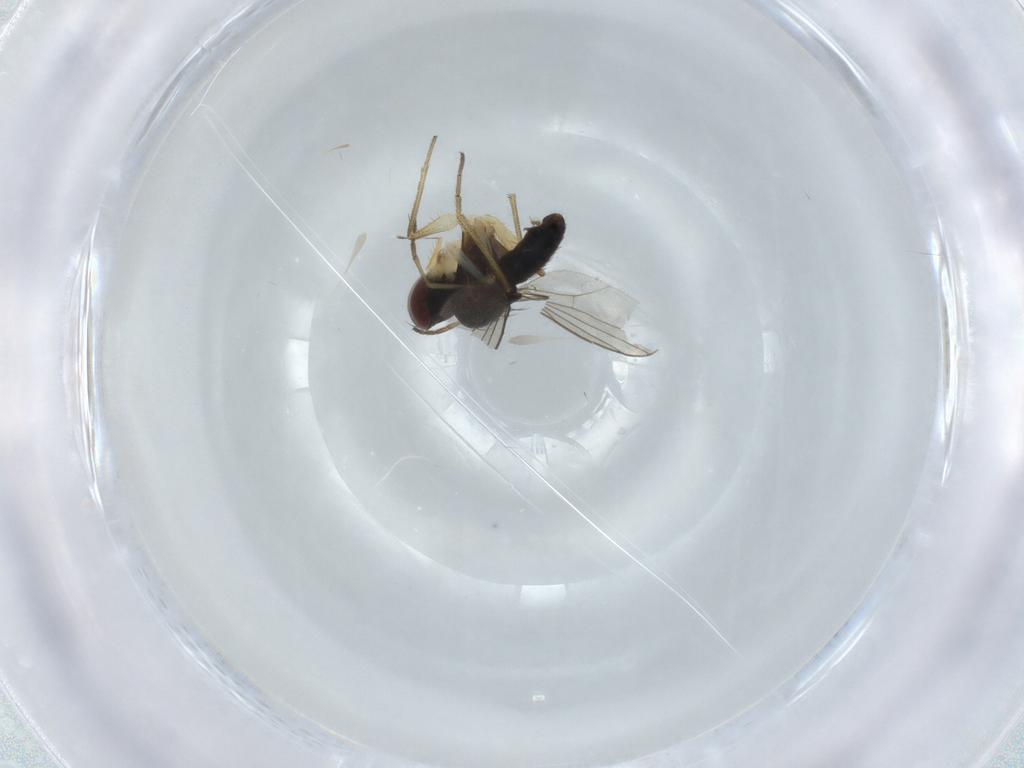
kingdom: Animalia
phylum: Arthropoda
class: Insecta
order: Diptera
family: Dolichopodidae
